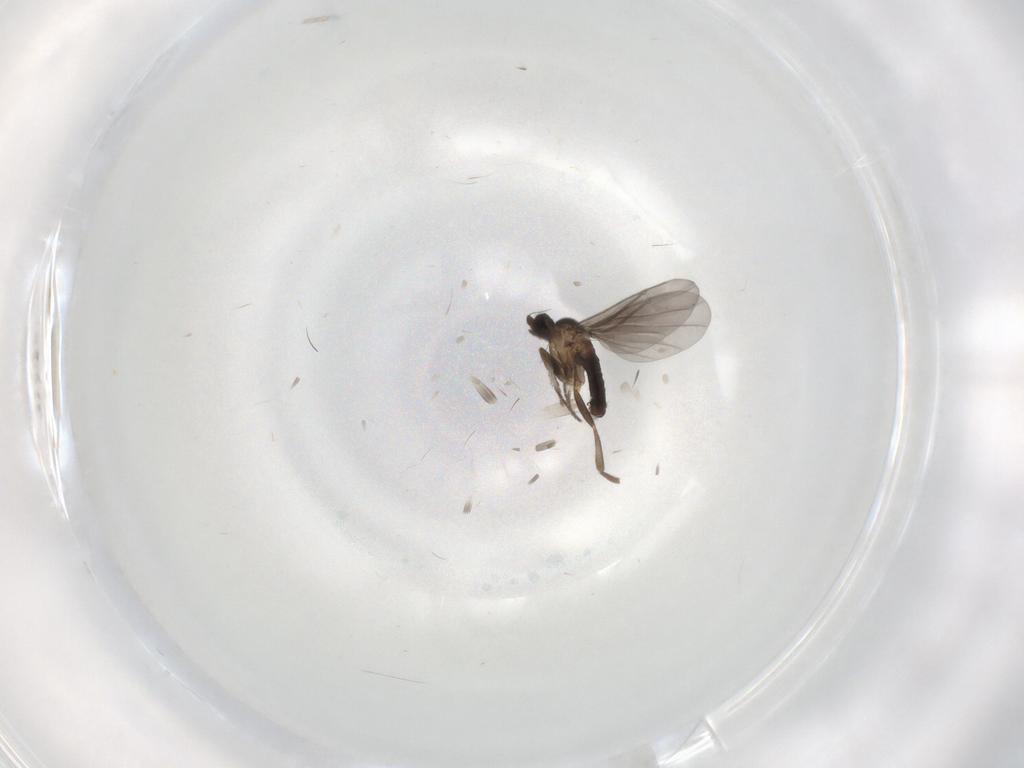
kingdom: Animalia
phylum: Arthropoda
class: Insecta
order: Diptera
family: Phoridae
